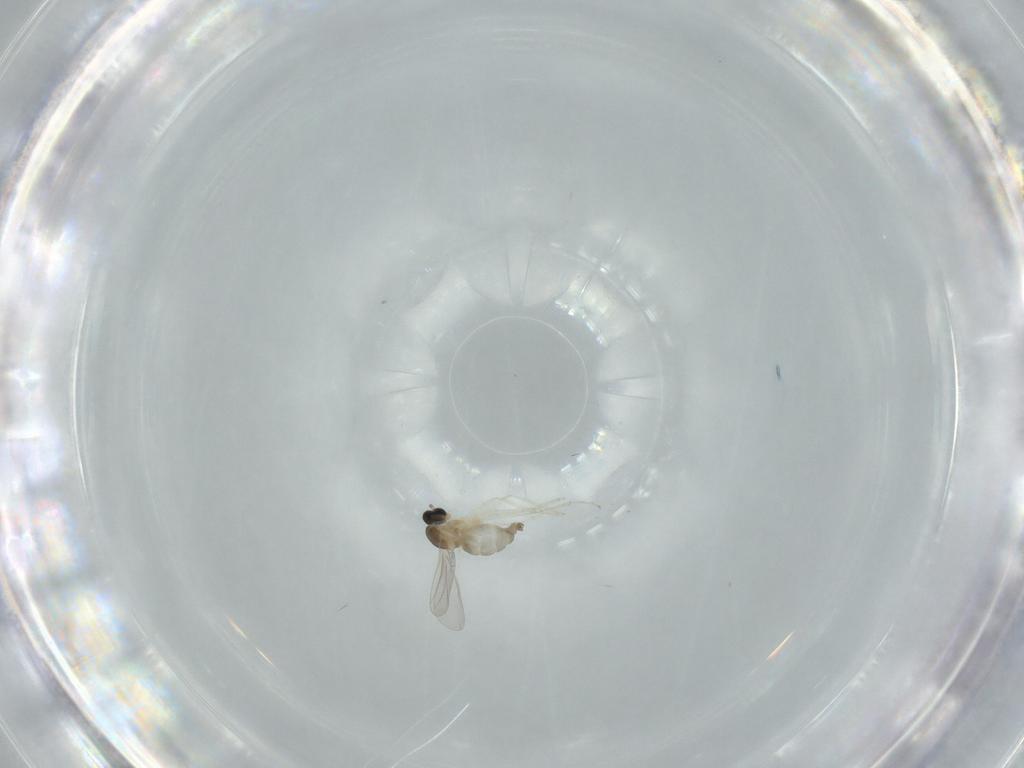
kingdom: Animalia
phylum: Arthropoda
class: Insecta
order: Diptera
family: Cecidomyiidae
